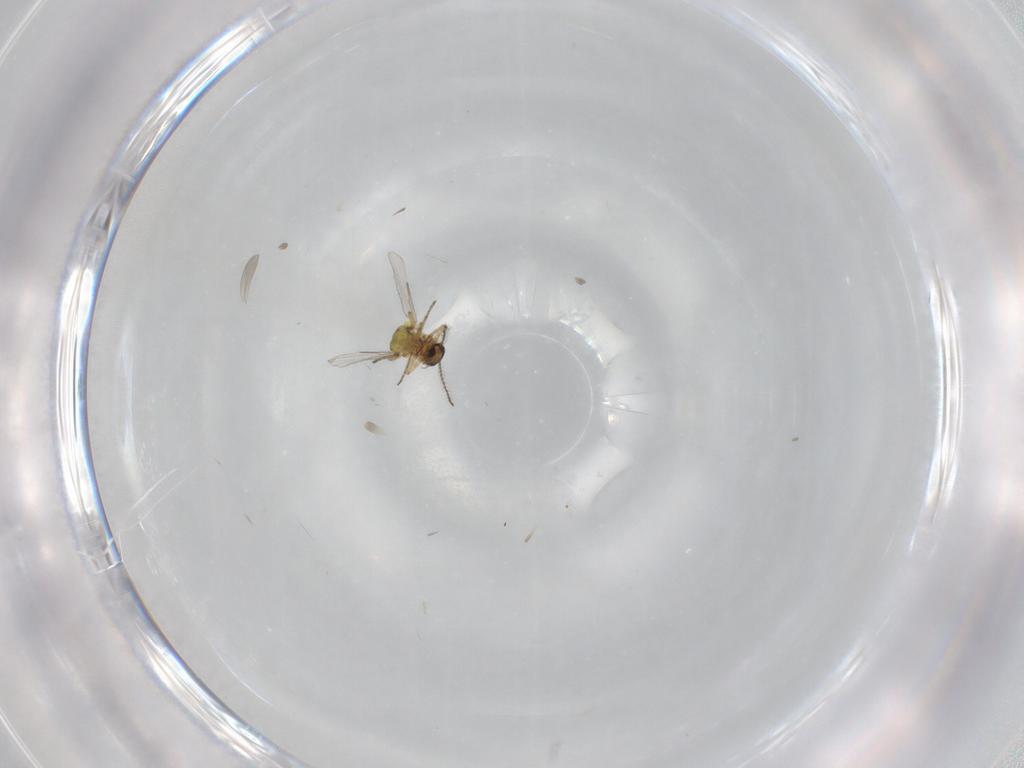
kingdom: Animalia
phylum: Arthropoda
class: Insecta
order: Diptera
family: Ceratopogonidae
